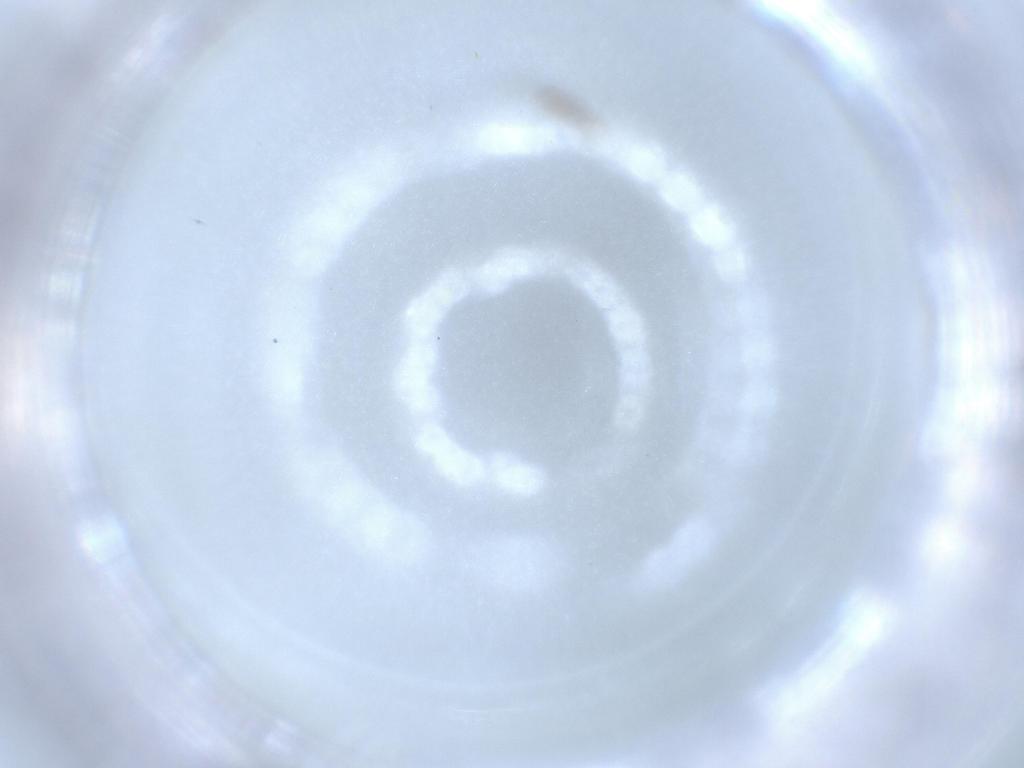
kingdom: Animalia
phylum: Arthropoda
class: Insecta
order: Diptera
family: Cecidomyiidae
